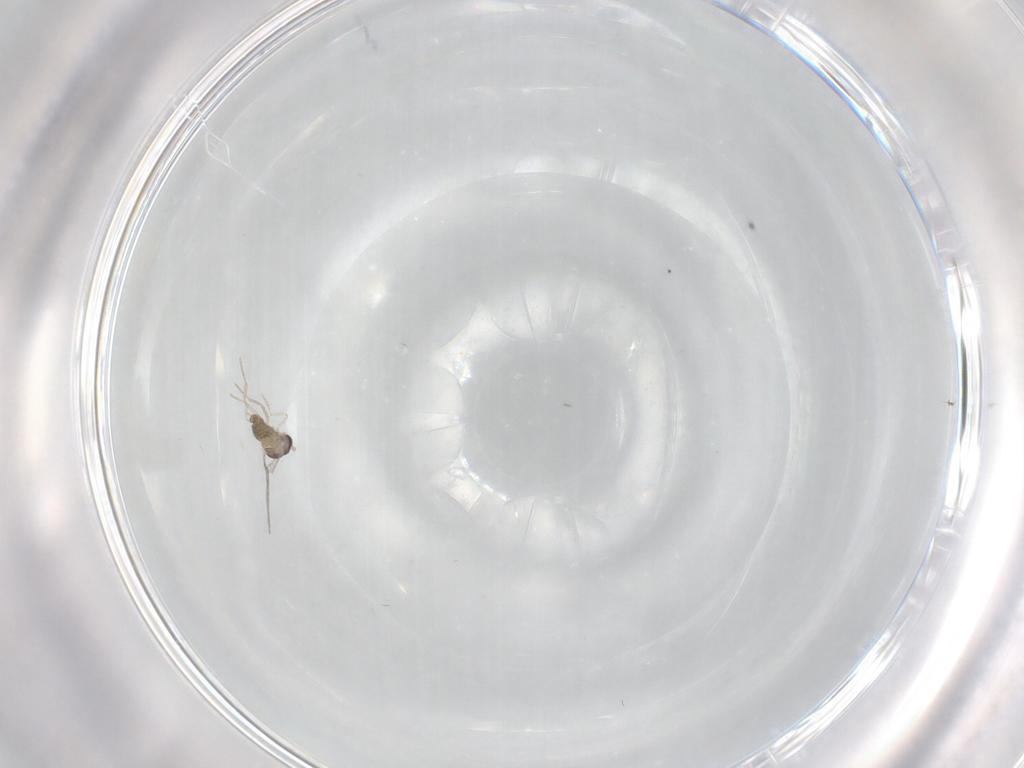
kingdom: Animalia
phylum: Arthropoda
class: Insecta
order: Diptera
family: Cecidomyiidae
